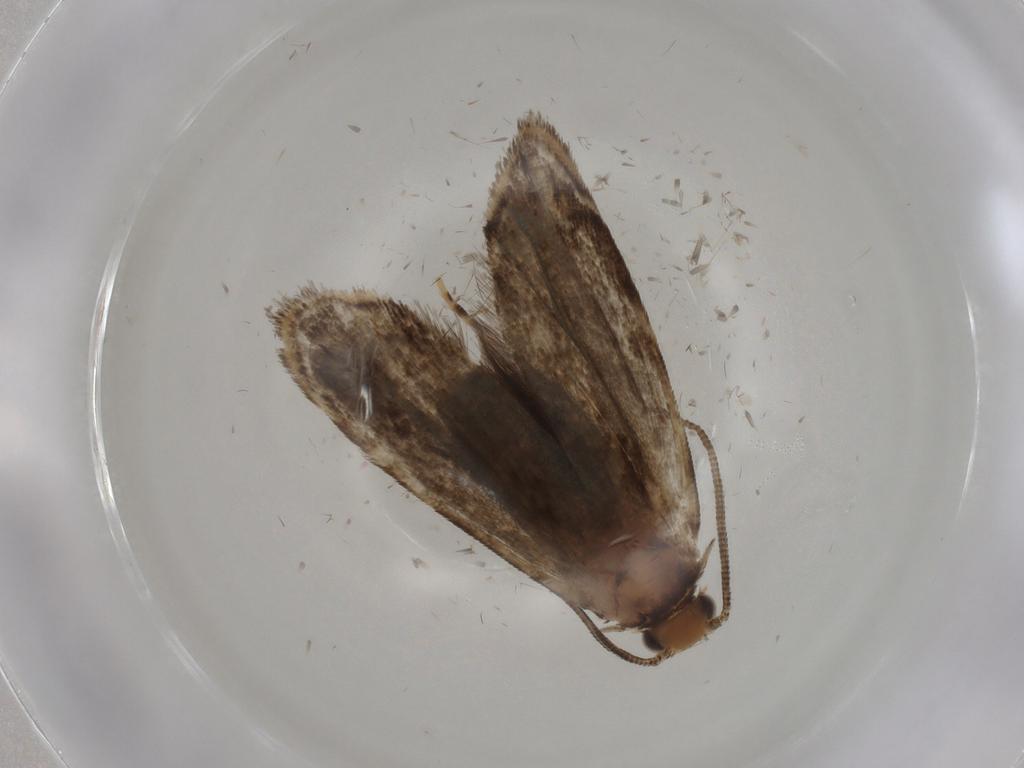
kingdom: Animalia
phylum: Arthropoda
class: Insecta
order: Lepidoptera
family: Dryadaulidae
